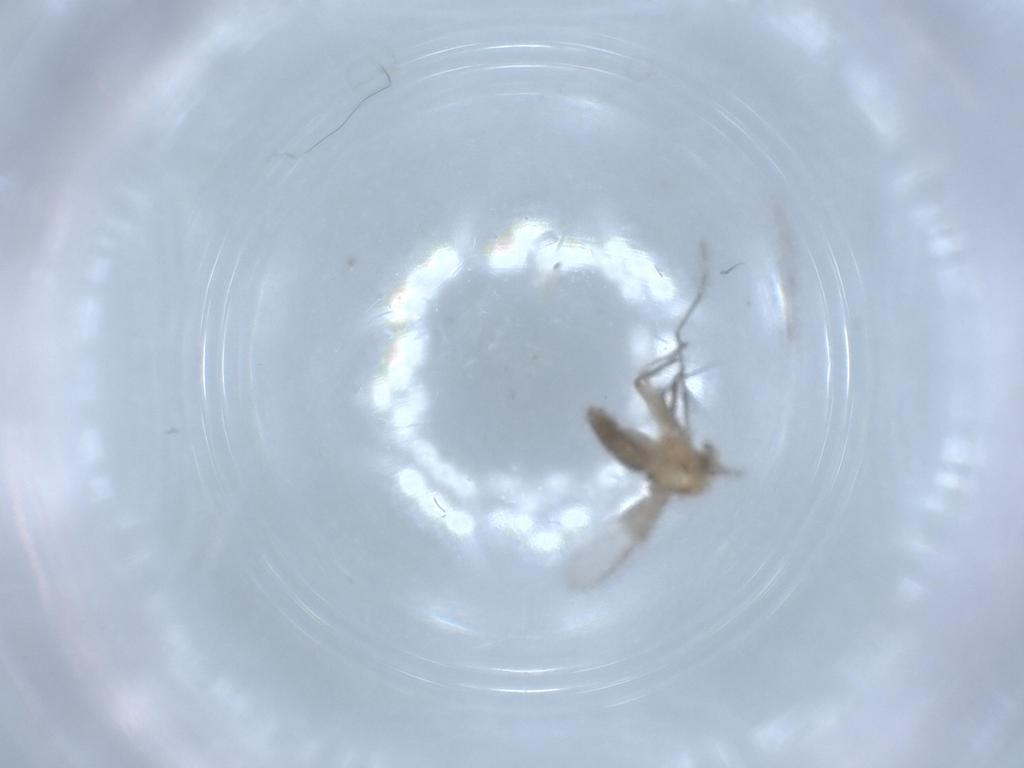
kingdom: Animalia
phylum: Arthropoda
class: Insecta
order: Diptera
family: Chironomidae
